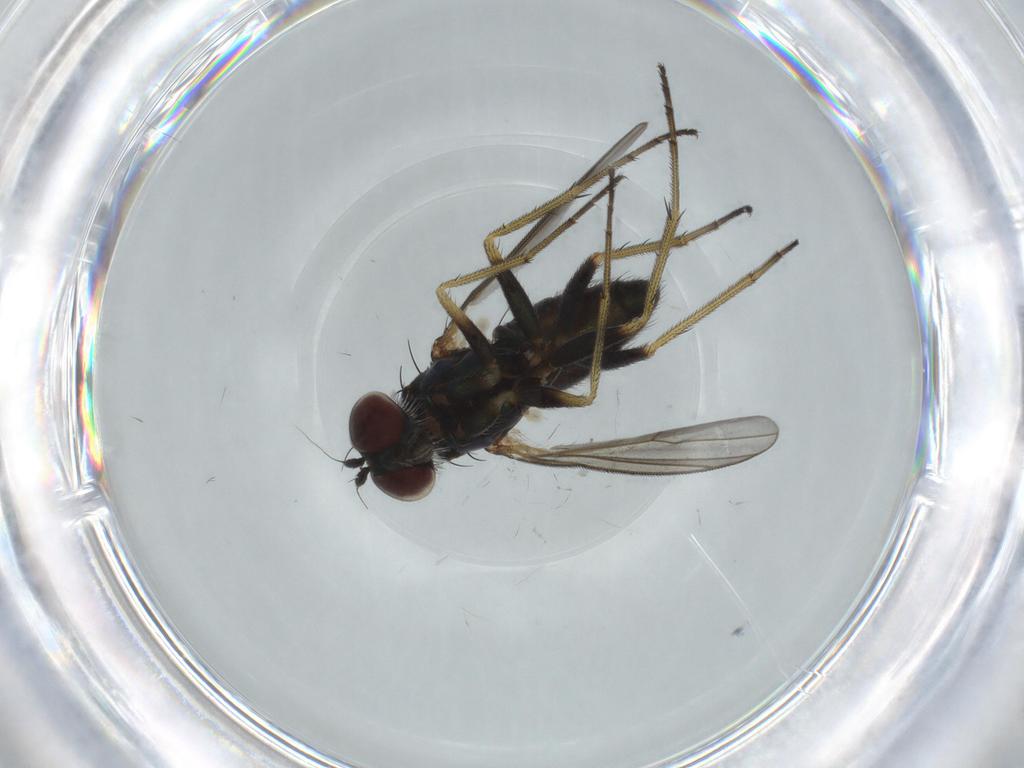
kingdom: Animalia
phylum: Arthropoda
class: Insecta
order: Diptera
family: Dolichopodidae
